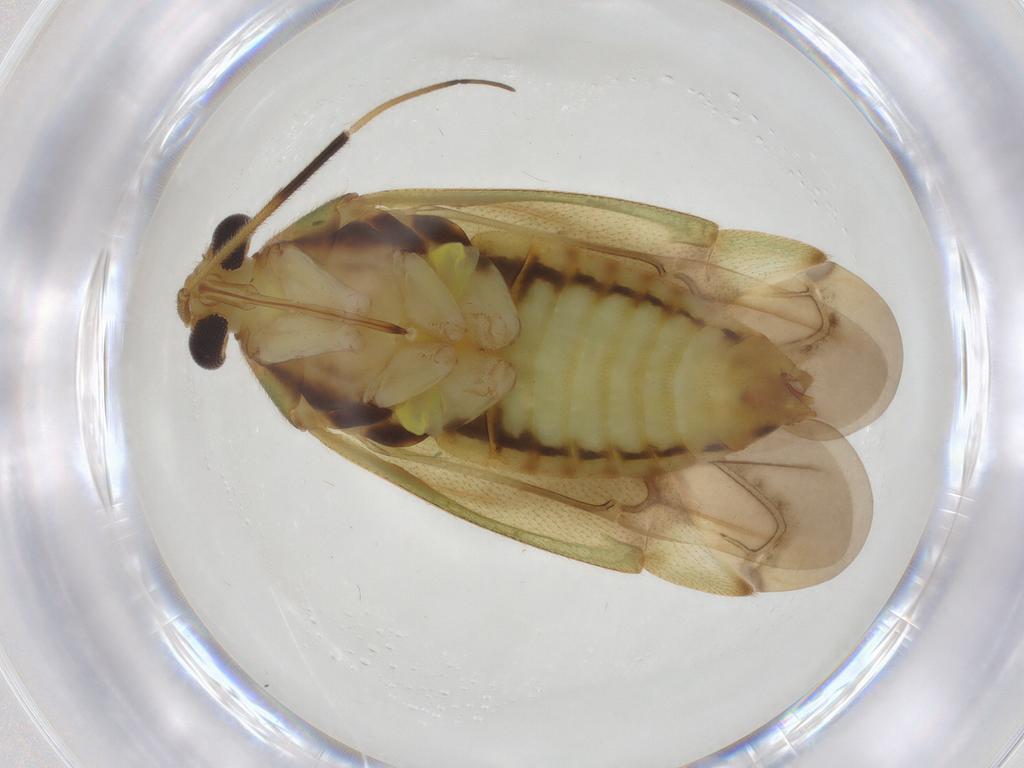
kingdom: Animalia
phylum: Arthropoda
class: Insecta
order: Hemiptera
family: Miridae
